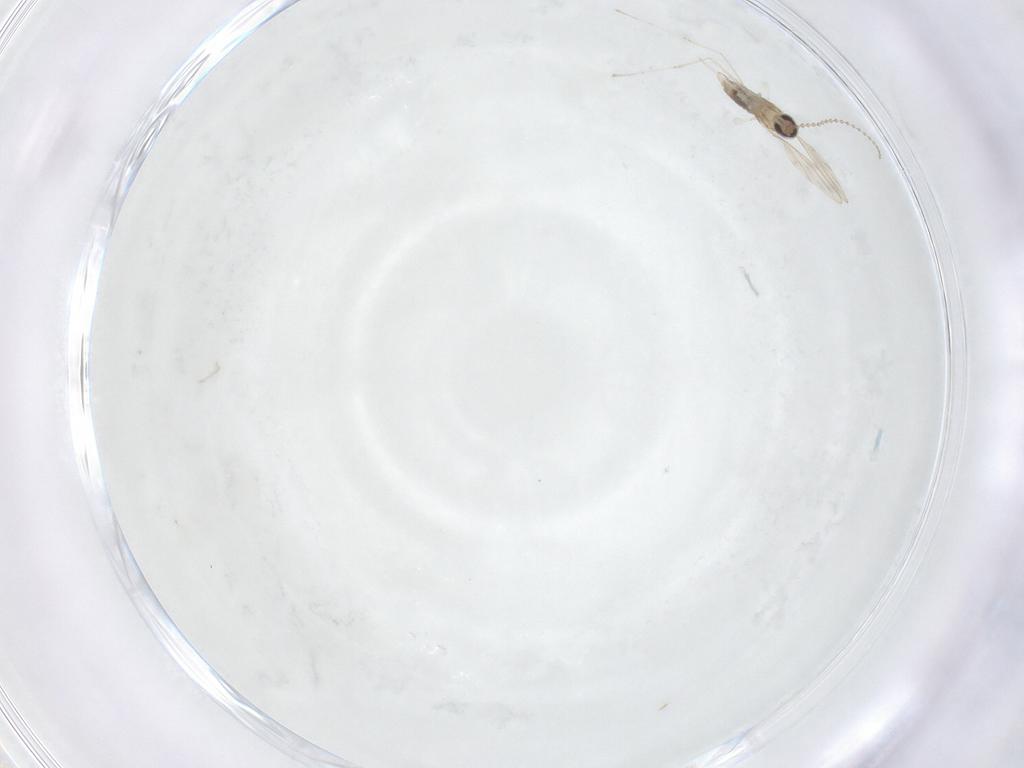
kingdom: Animalia
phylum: Arthropoda
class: Insecta
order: Diptera
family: Cecidomyiidae
